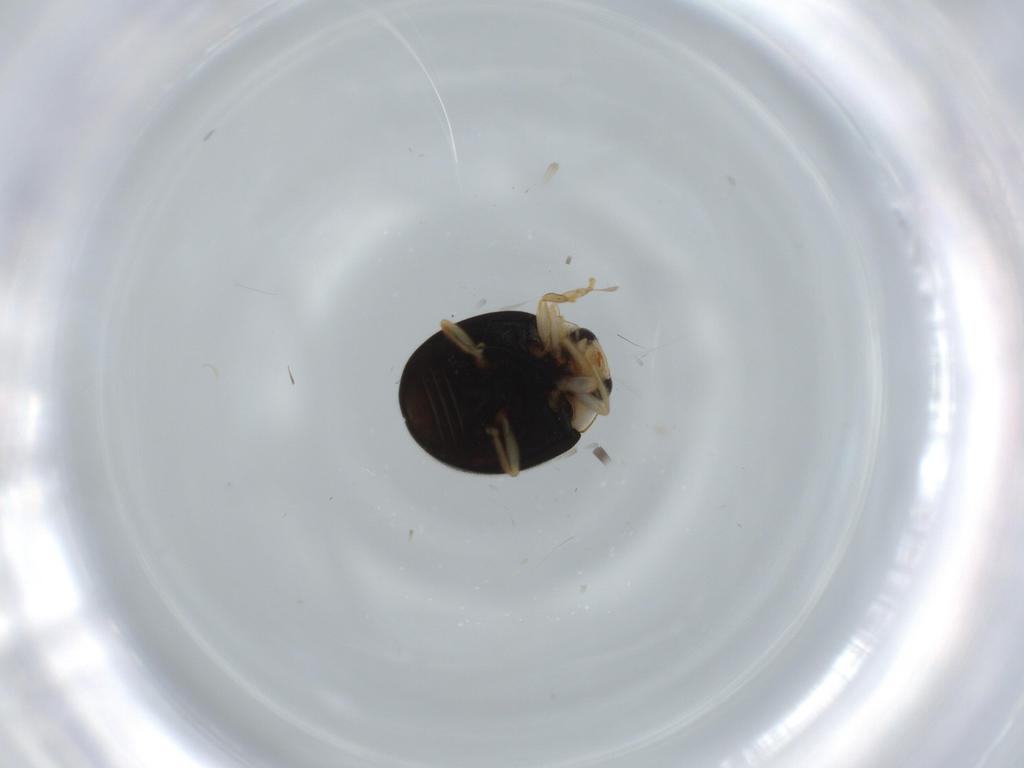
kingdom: Animalia
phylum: Arthropoda
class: Insecta
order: Coleoptera
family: Coccinellidae
